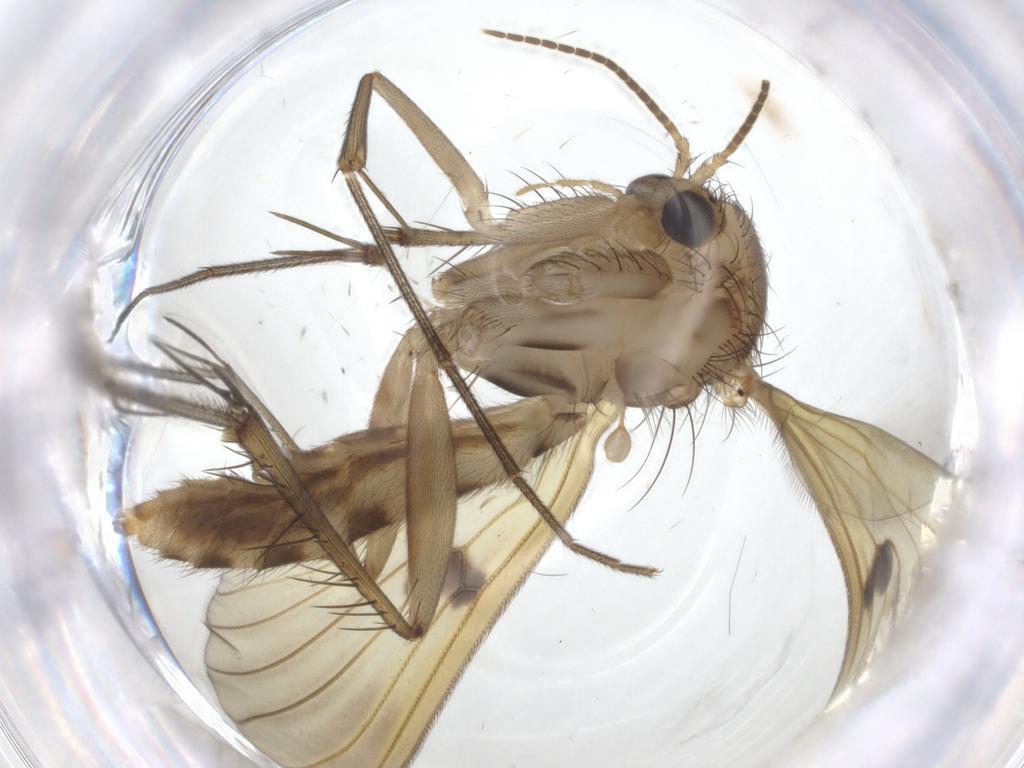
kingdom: Animalia
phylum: Arthropoda
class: Insecta
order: Diptera
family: Mycetophilidae
